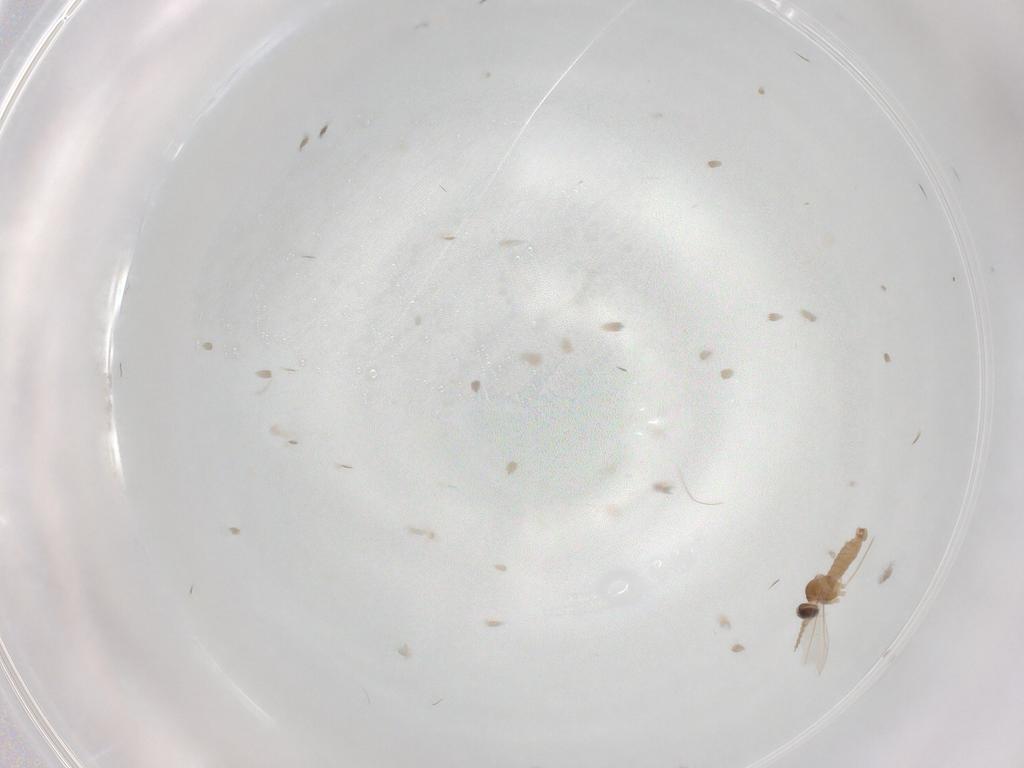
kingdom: Animalia
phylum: Arthropoda
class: Insecta
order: Diptera
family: Cecidomyiidae
